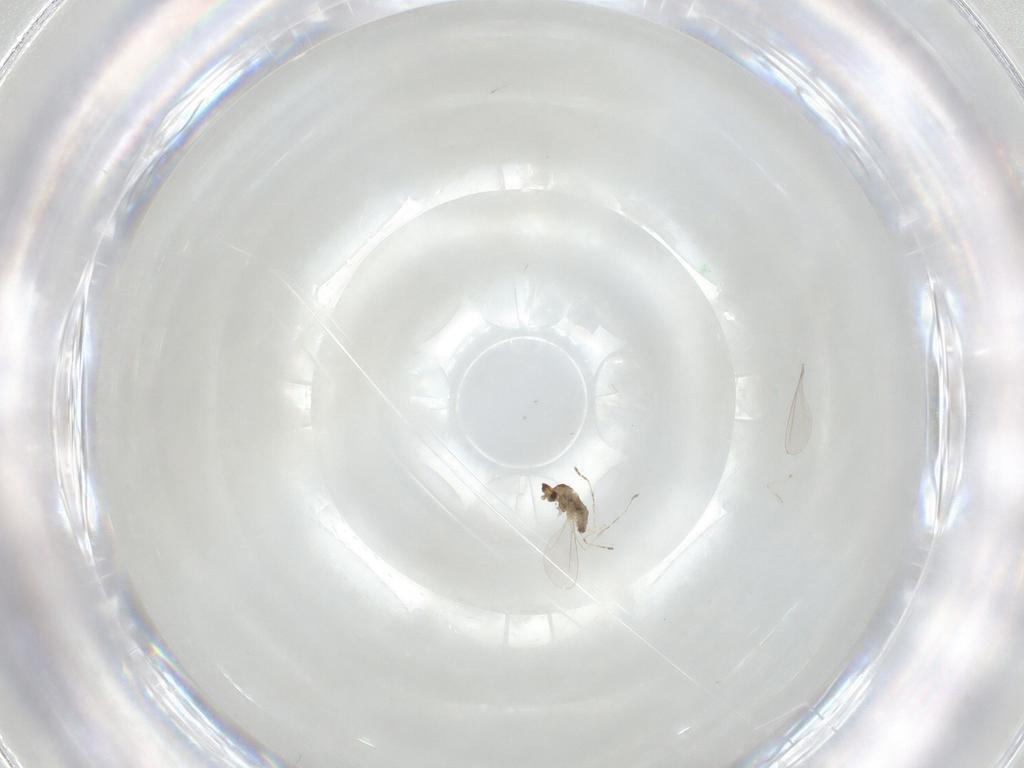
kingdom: Animalia
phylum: Arthropoda
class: Insecta
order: Diptera
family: Cecidomyiidae
